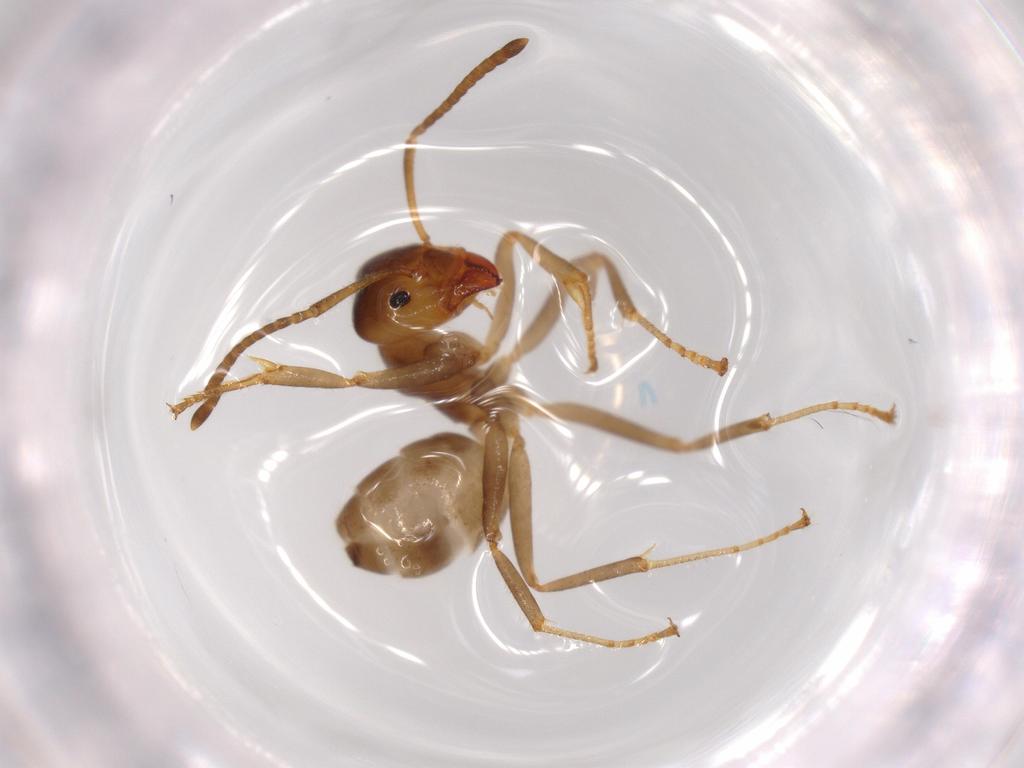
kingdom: Animalia
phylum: Arthropoda
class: Insecta
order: Hymenoptera
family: Formicidae
